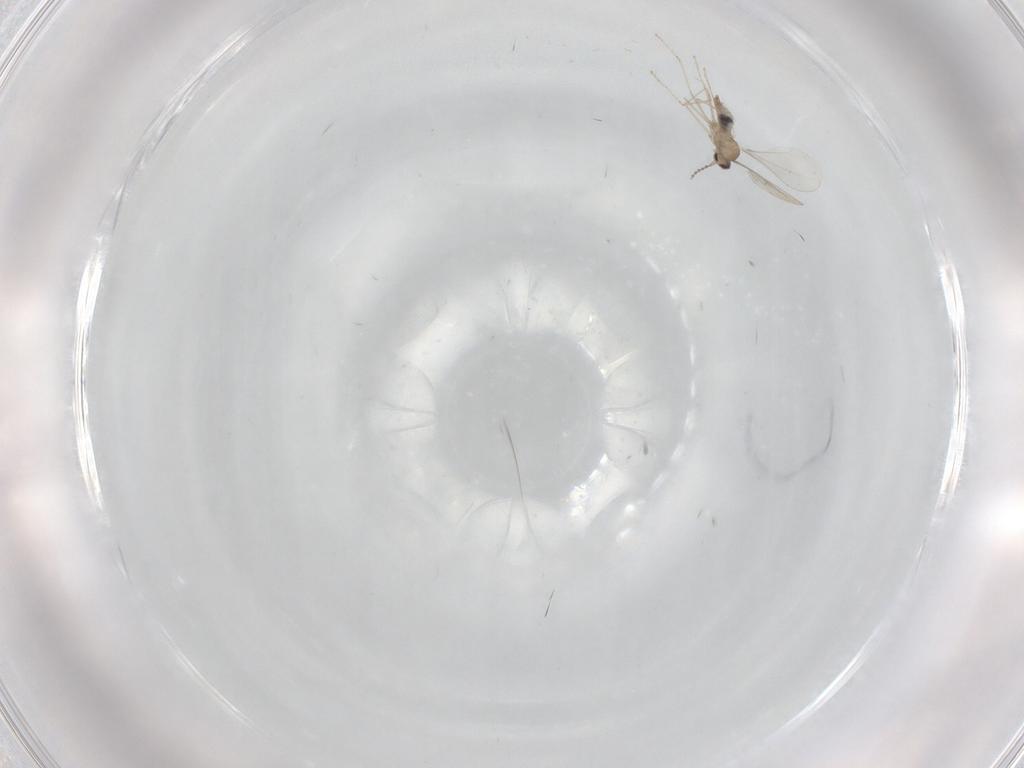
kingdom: Animalia
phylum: Arthropoda
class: Insecta
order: Diptera
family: Cecidomyiidae
